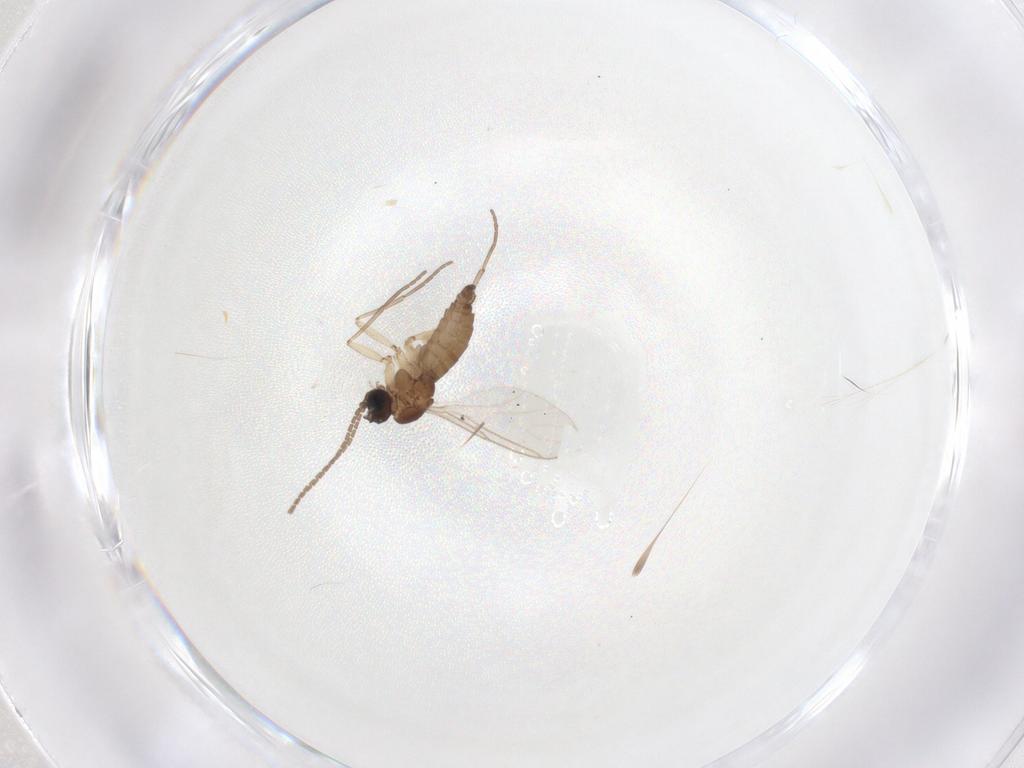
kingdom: Animalia
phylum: Arthropoda
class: Insecta
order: Diptera
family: Sciaridae
